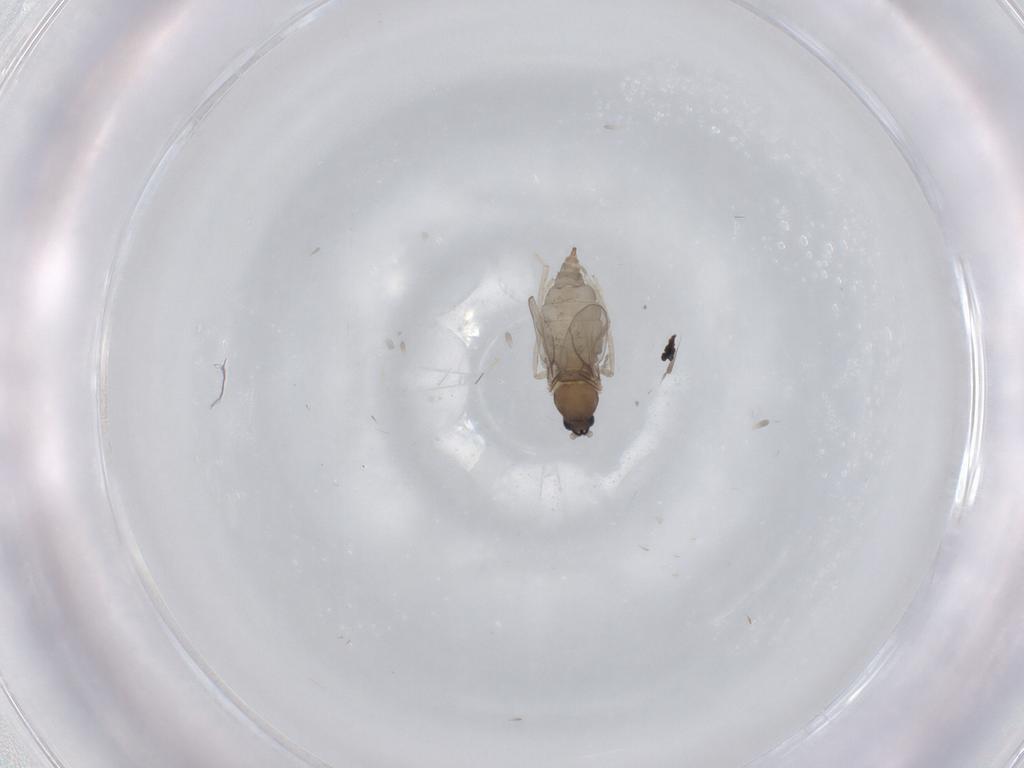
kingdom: Animalia
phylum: Arthropoda
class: Insecta
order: Diptera
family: Cecidomyiidae
